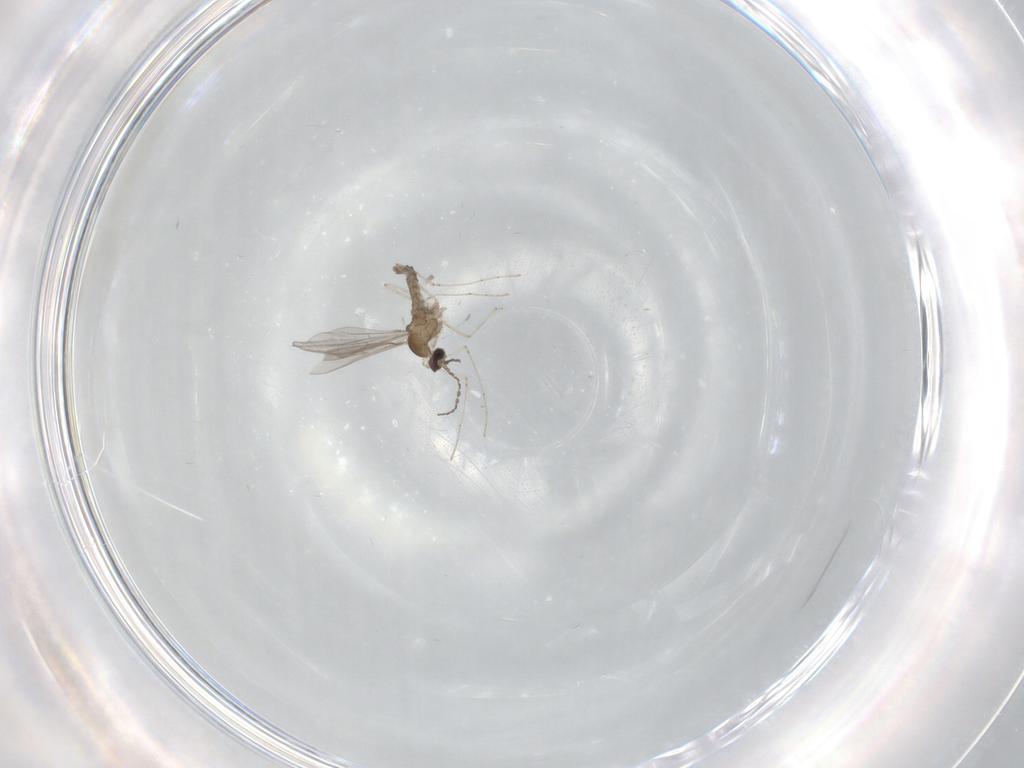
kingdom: Animalia
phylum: Arthropoda
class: Insecta
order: Diptera
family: Cecidomyiidae
